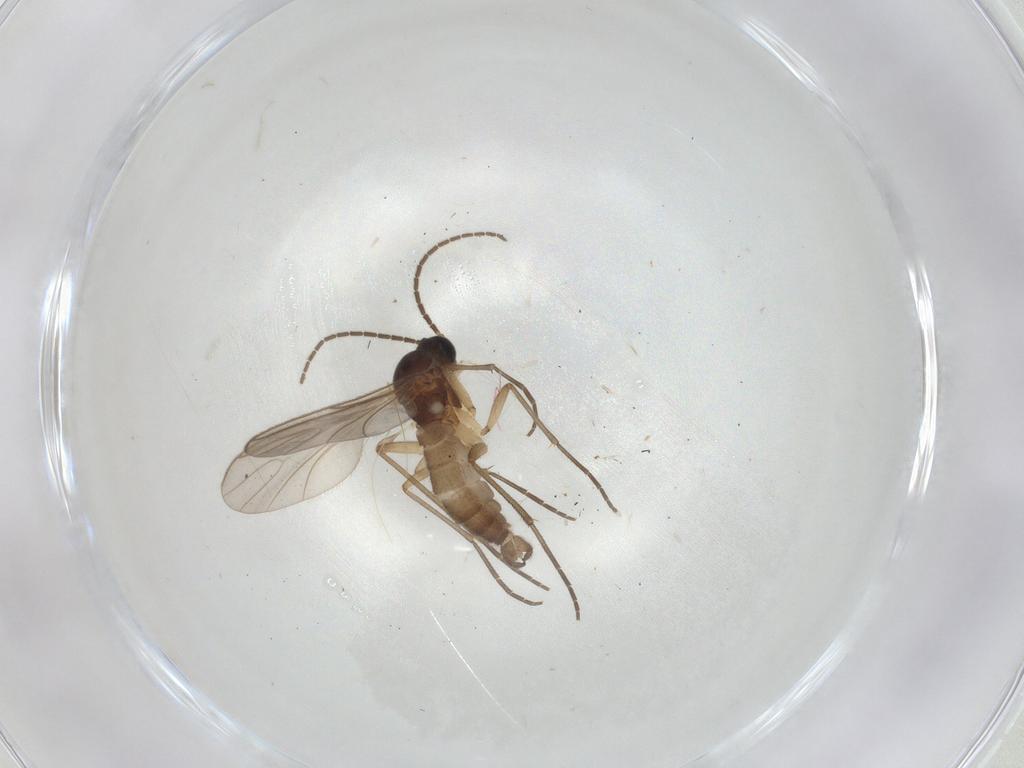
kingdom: Animalia
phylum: Arthropoda
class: Insecta
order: Diptera
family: Sciaridae
